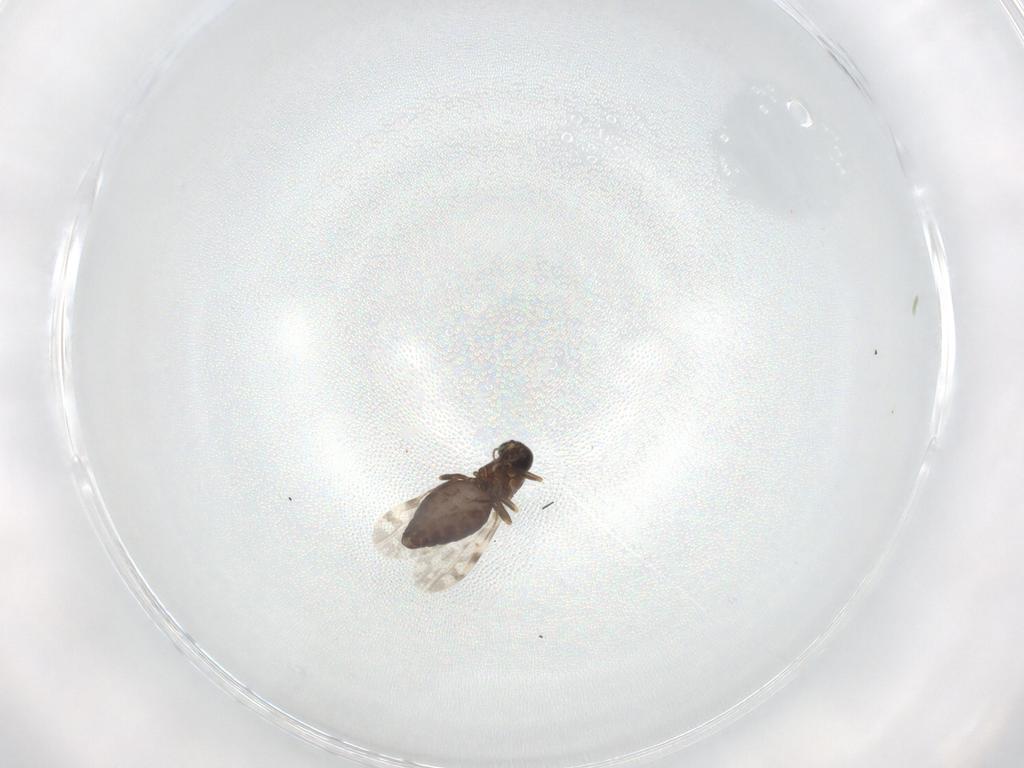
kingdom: Animalia
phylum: Arthropoda
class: Insecta
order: Diptera
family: Ceratopogonidae
